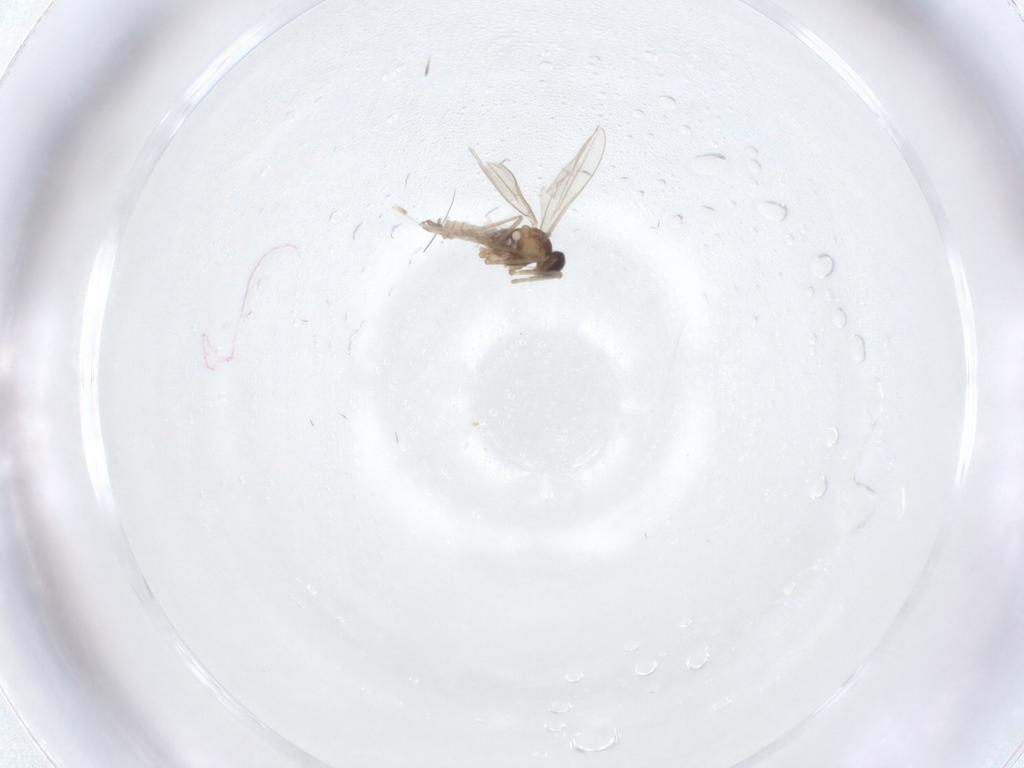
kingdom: Animalia
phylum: Arthropoda
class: Insecta
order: Diptera
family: Cecidomyiidae
